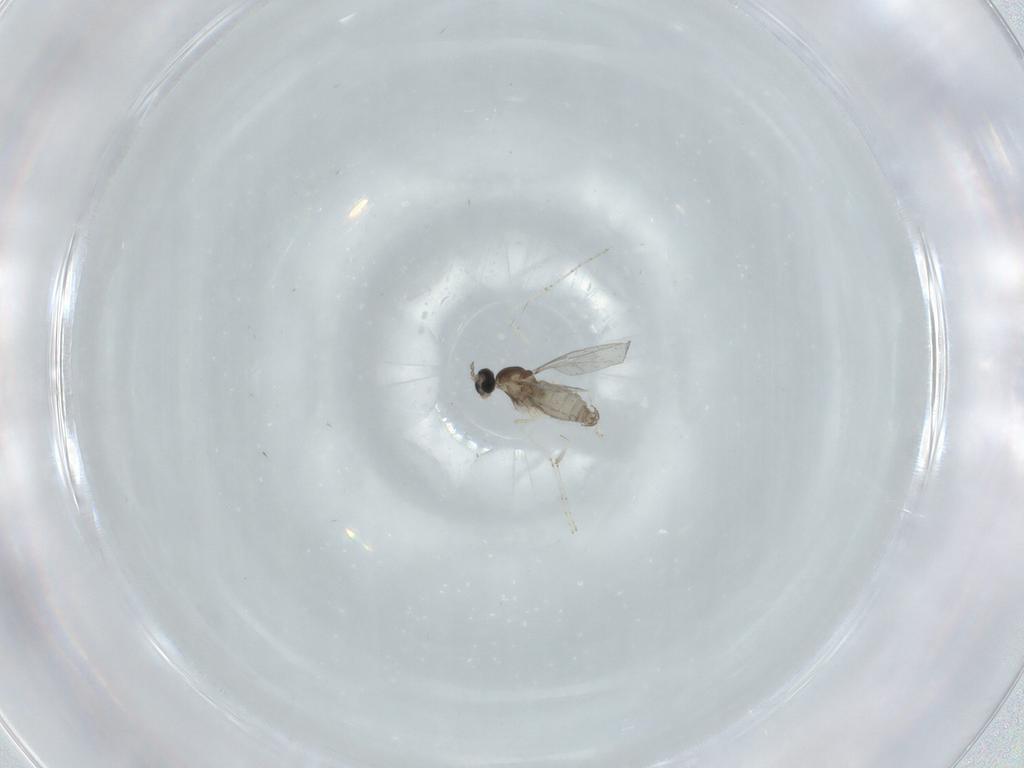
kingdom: Animalia
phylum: Arthropoda
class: Insecta
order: Diptera
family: Cecidomyiidae
